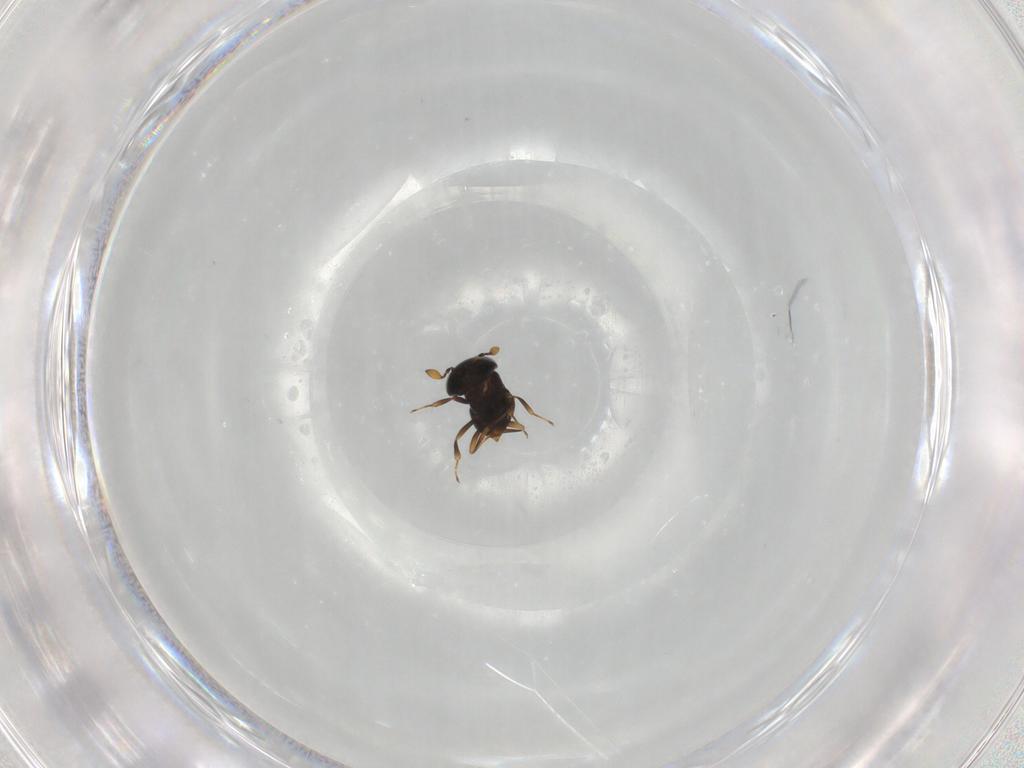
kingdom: Animalia
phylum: Arthropoda
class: Insecta
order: Hymenoptera
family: Scelionidae
